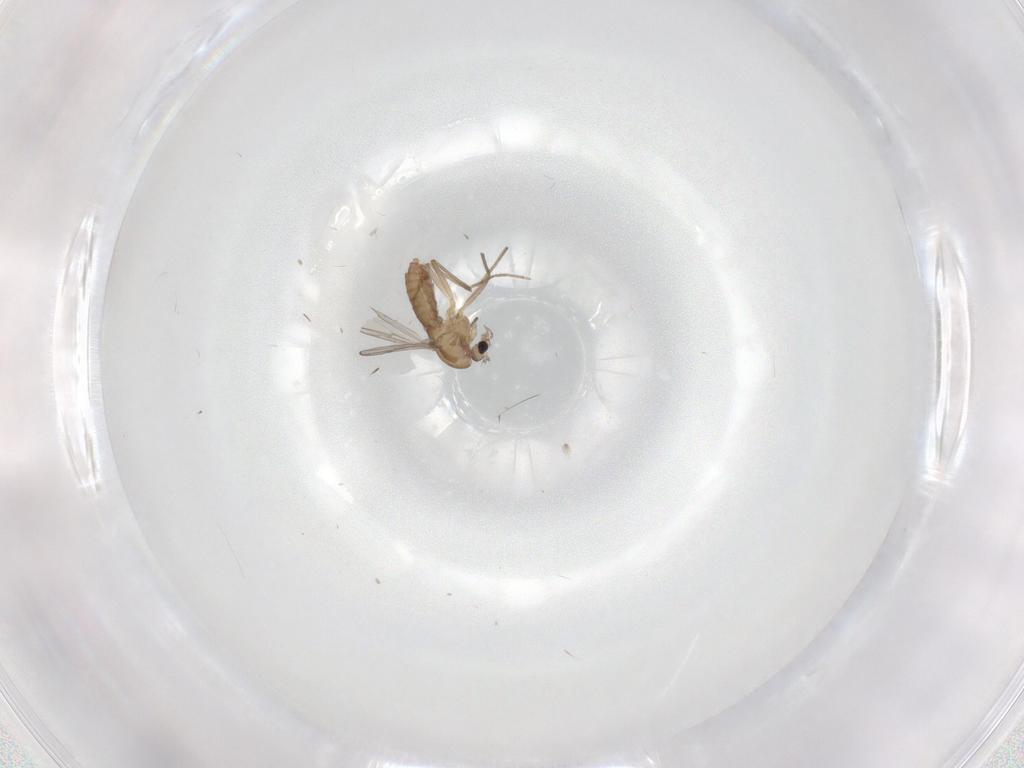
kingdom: Animalia
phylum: Arthropoda
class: Insecta
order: Diptera
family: Chironomidae
